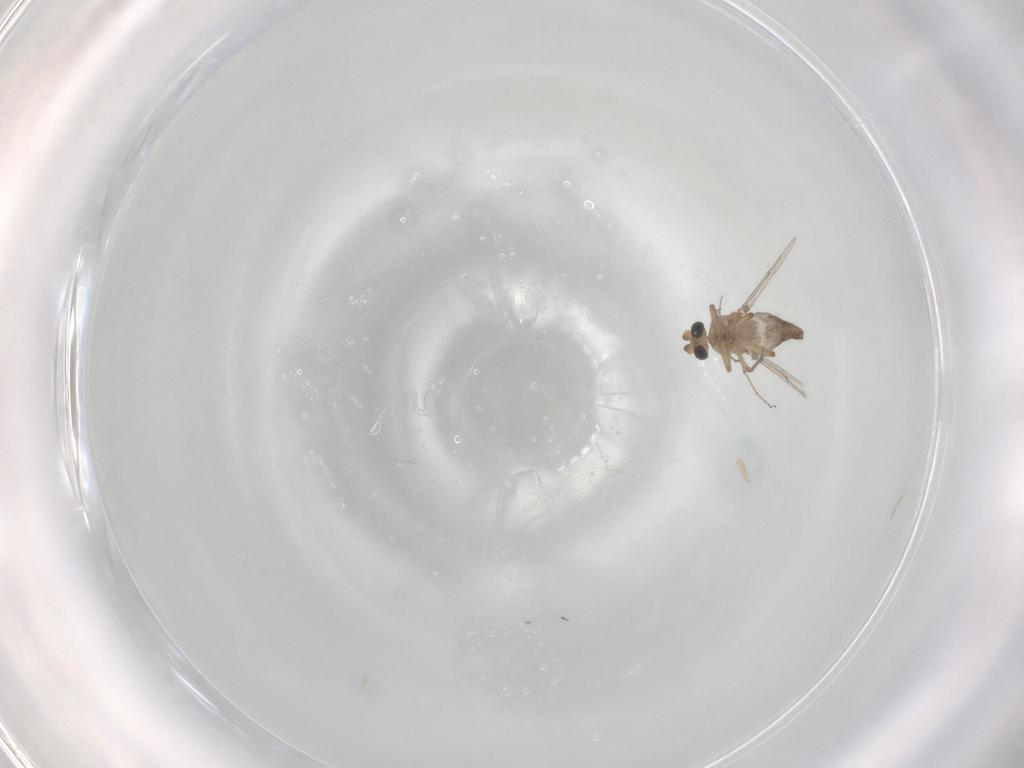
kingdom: Animalia
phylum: Arthropoda
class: Insecta
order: Diptera
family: Ceratopogonidae
